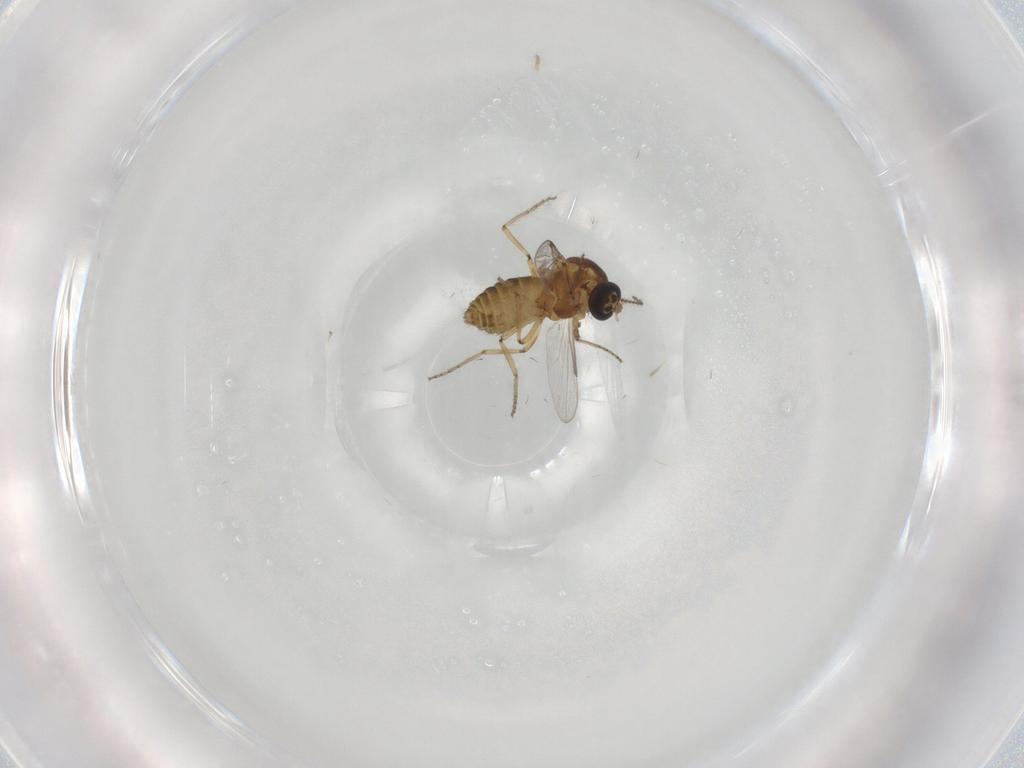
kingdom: Animalia
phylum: Arthropoda
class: Insecta
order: Diptera
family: Ceratopogonidae
